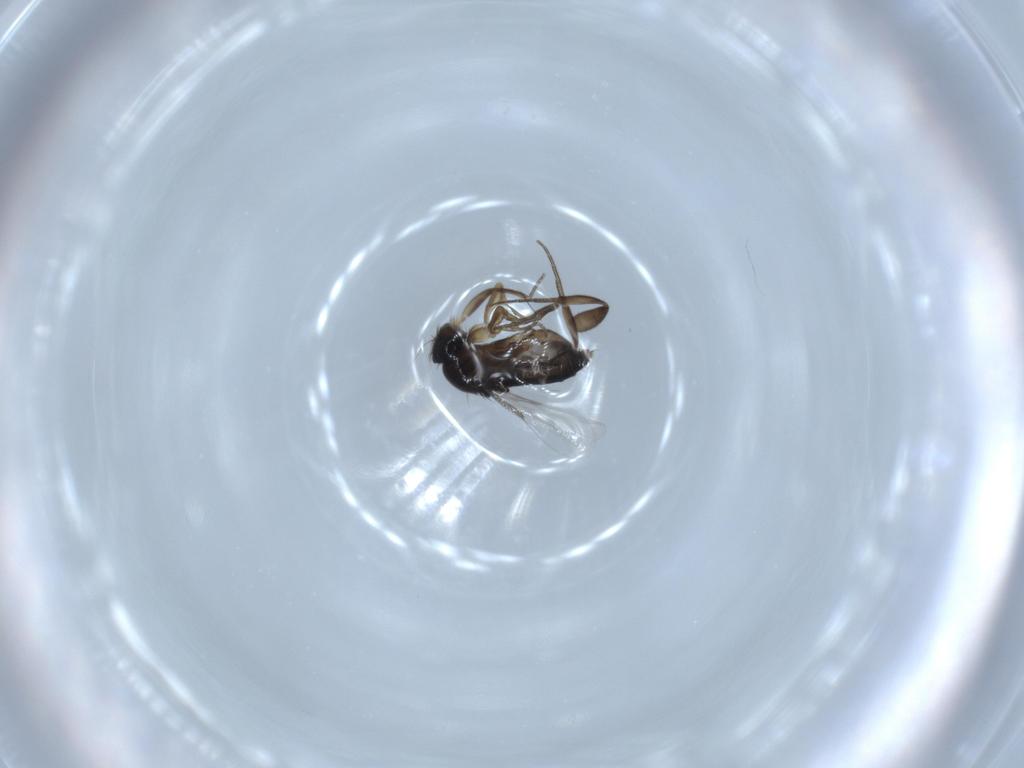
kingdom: Animalia
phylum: Arthropoda
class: Insecta
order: Diptera
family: Phoridae
